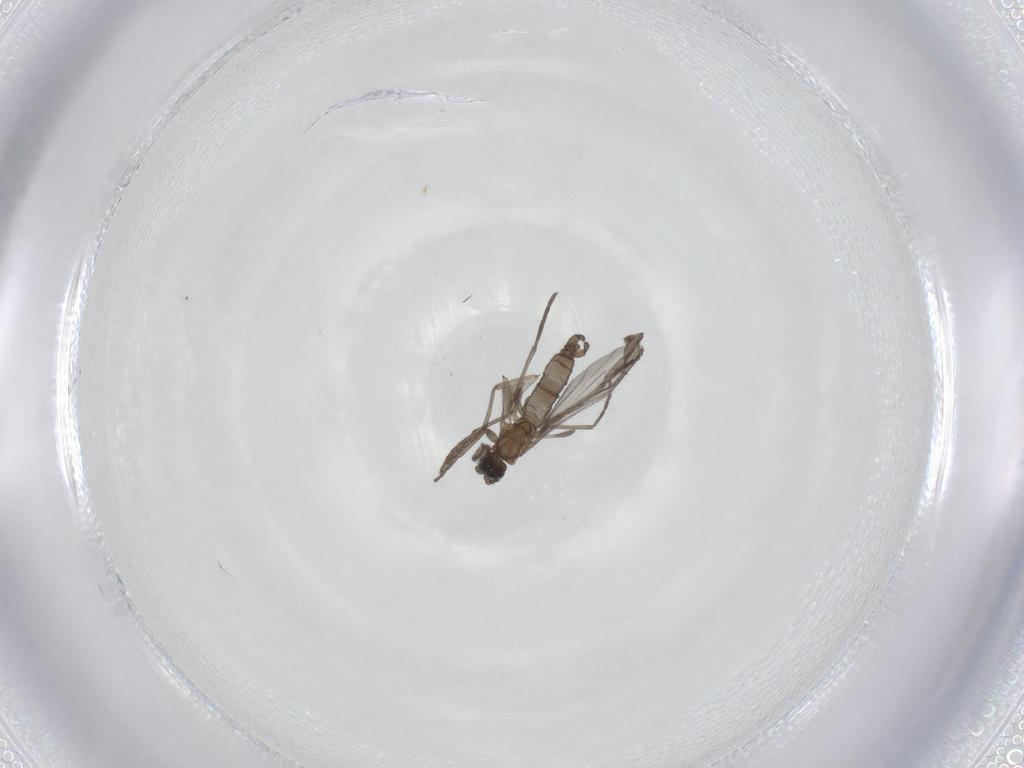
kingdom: Animalia
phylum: Arthropoda
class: Insecta
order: Diptera
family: Sciaridae
